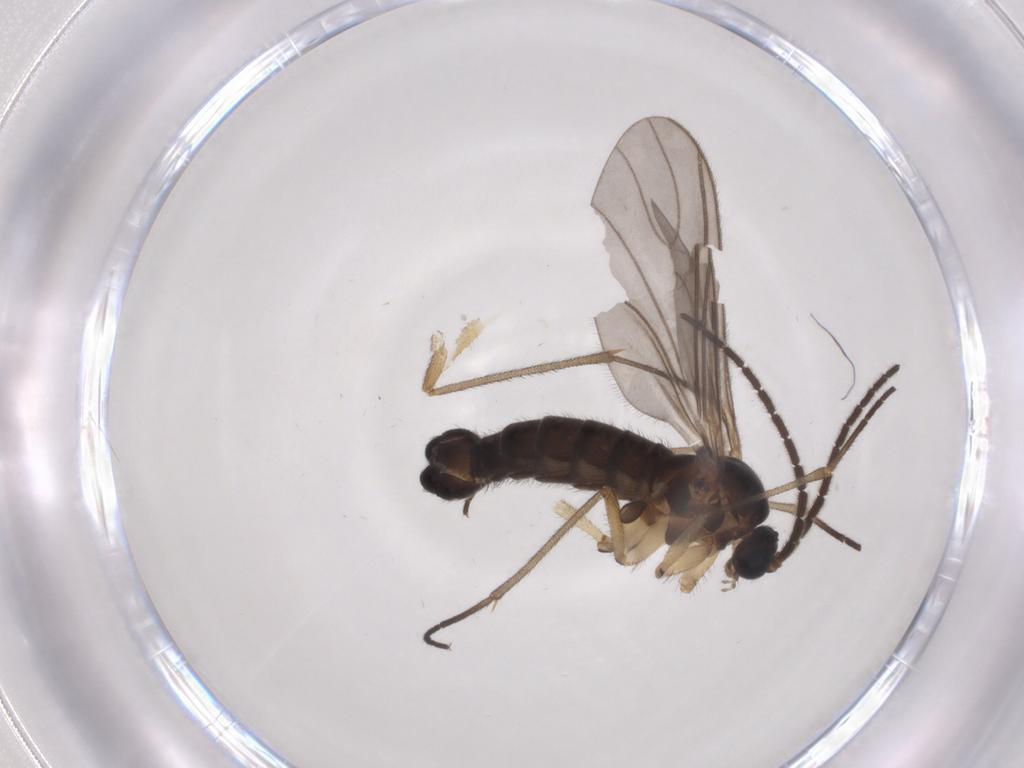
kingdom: Animalia
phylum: Arthropoda
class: Insecta
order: Diptera
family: Sciaridae
